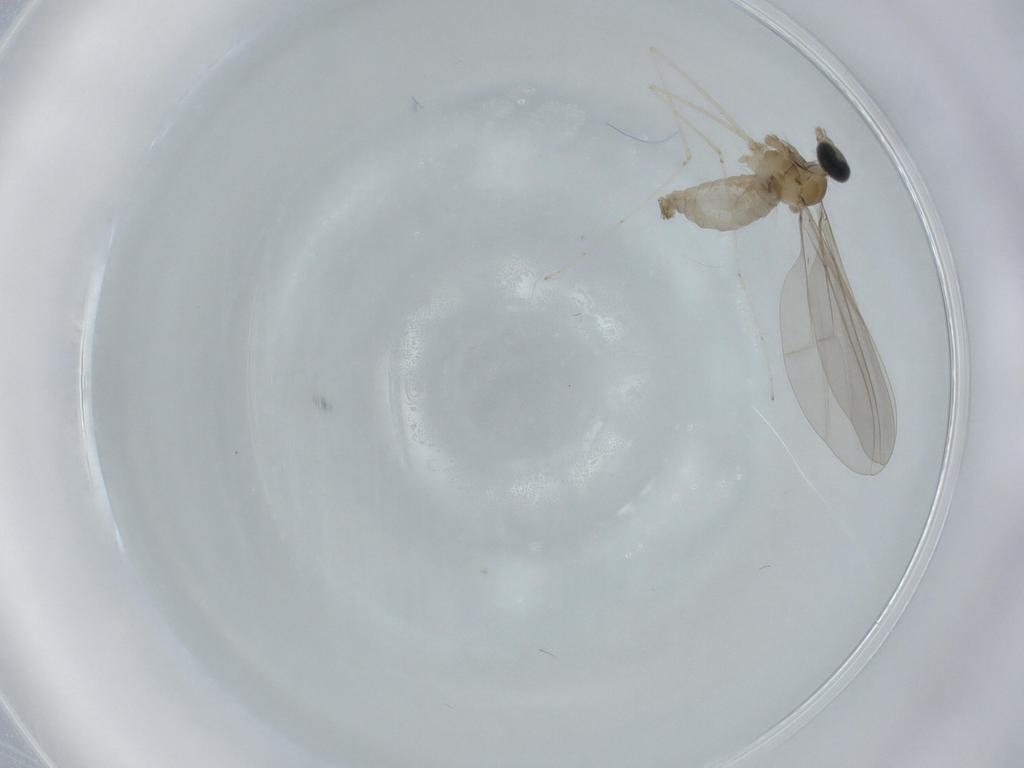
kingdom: Animalia
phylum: Arthropoda
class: Insecta
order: Diptera
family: Cecidomyiidae
